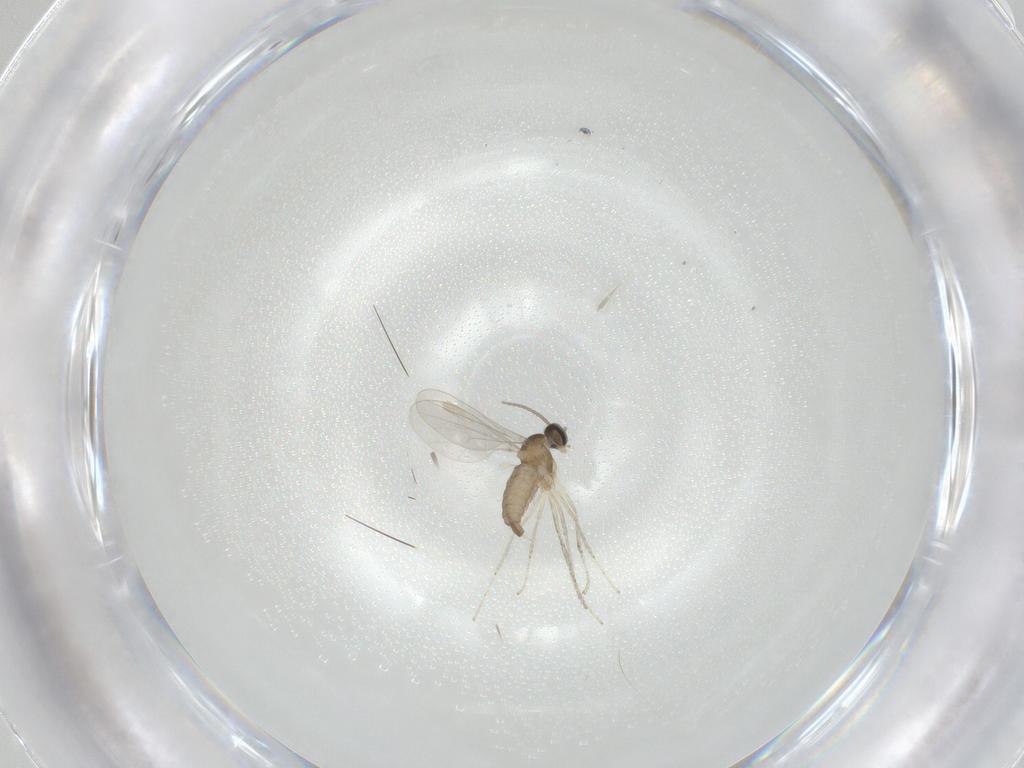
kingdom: Animalia
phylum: Arthropoda
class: Insecta
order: Diptera
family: Cecidomyiidae
